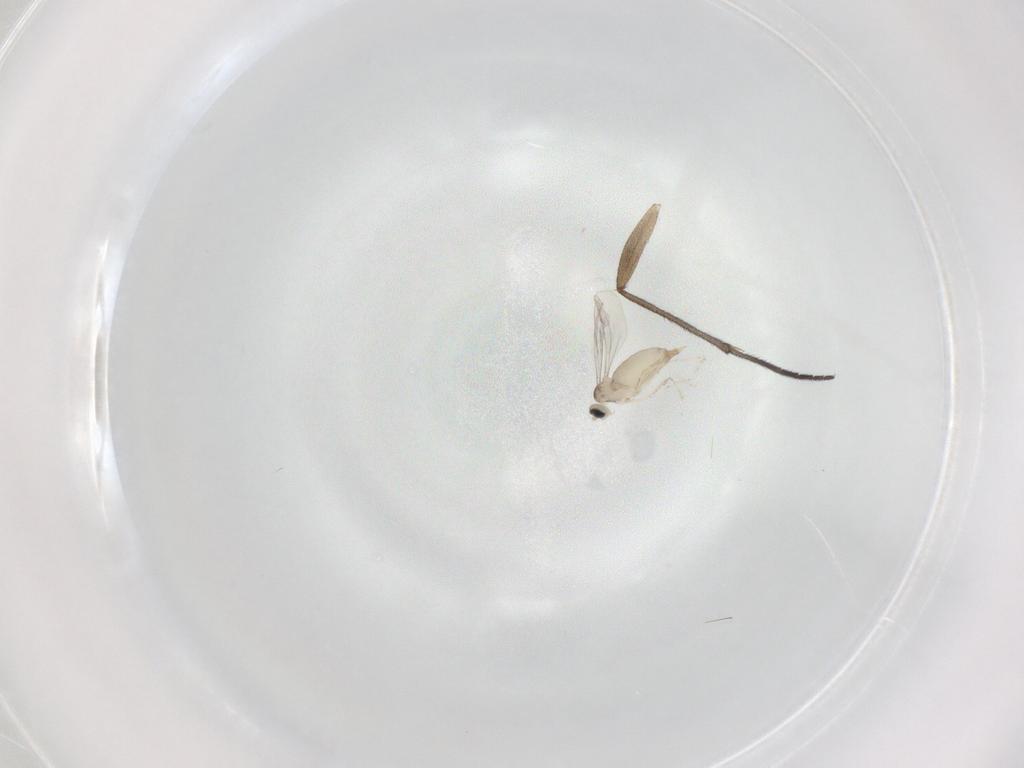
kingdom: Animalia
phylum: Arthropoda
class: Insecta
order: Diptera
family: Sciaridae
